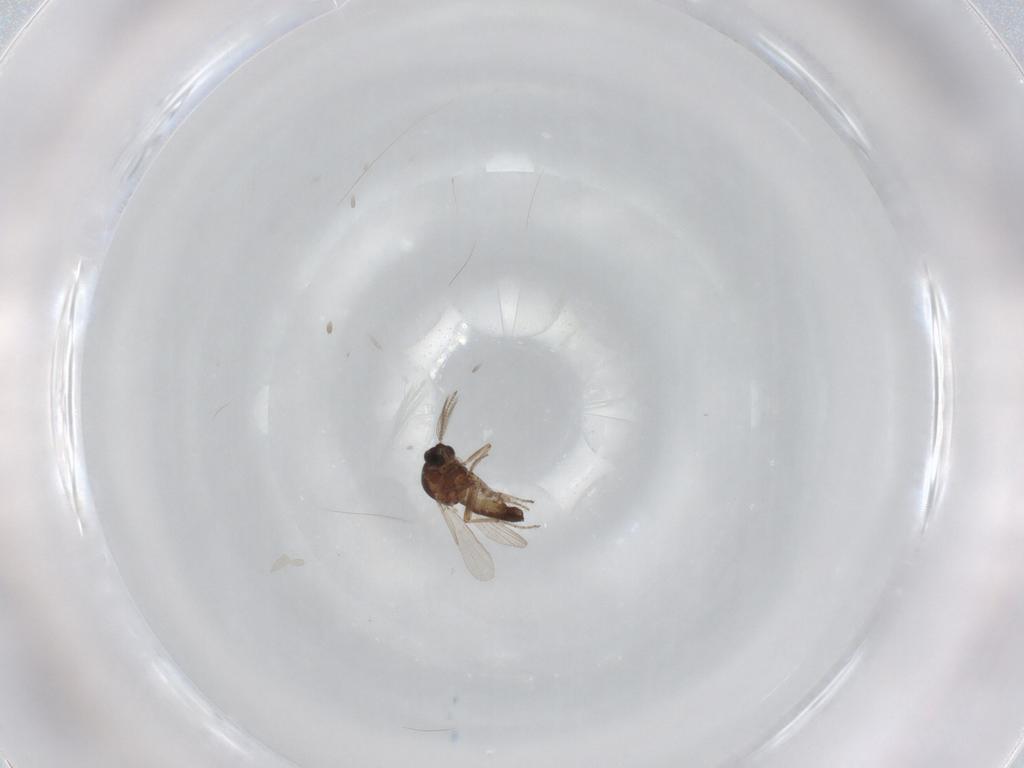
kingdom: Animalia
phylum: Arthropoda
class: Insecta
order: Diptera
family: Ceratopogonidae
